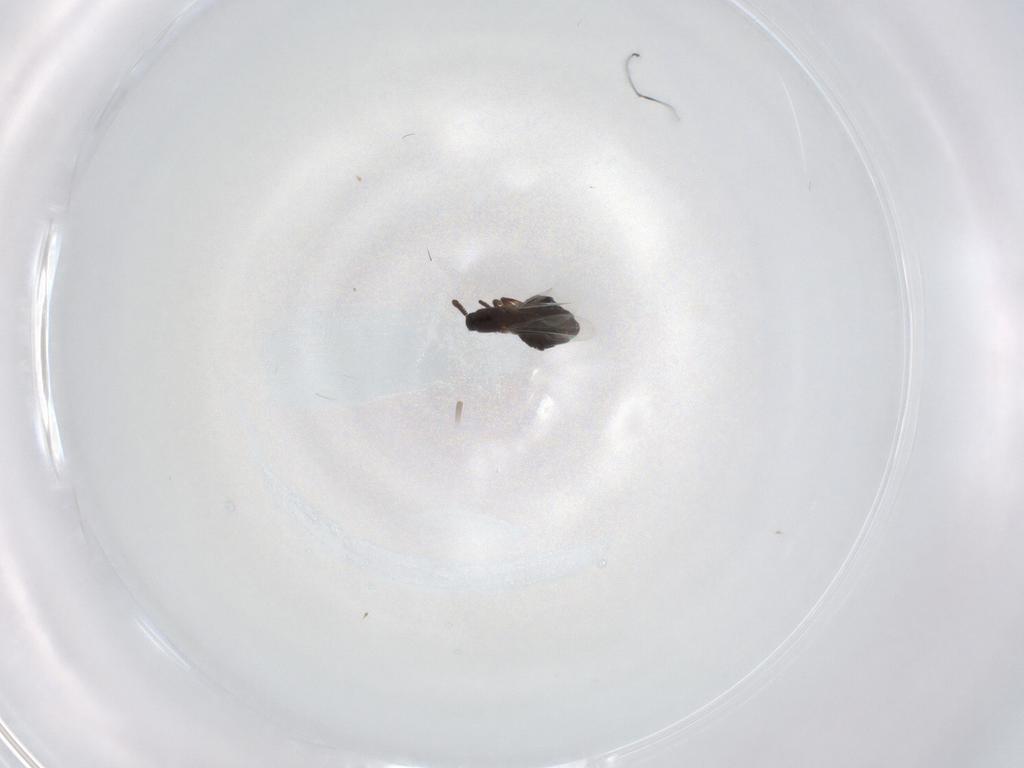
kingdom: Animalia
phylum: Arthropoda
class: Insecta
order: Diptera
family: Scatopsidae
